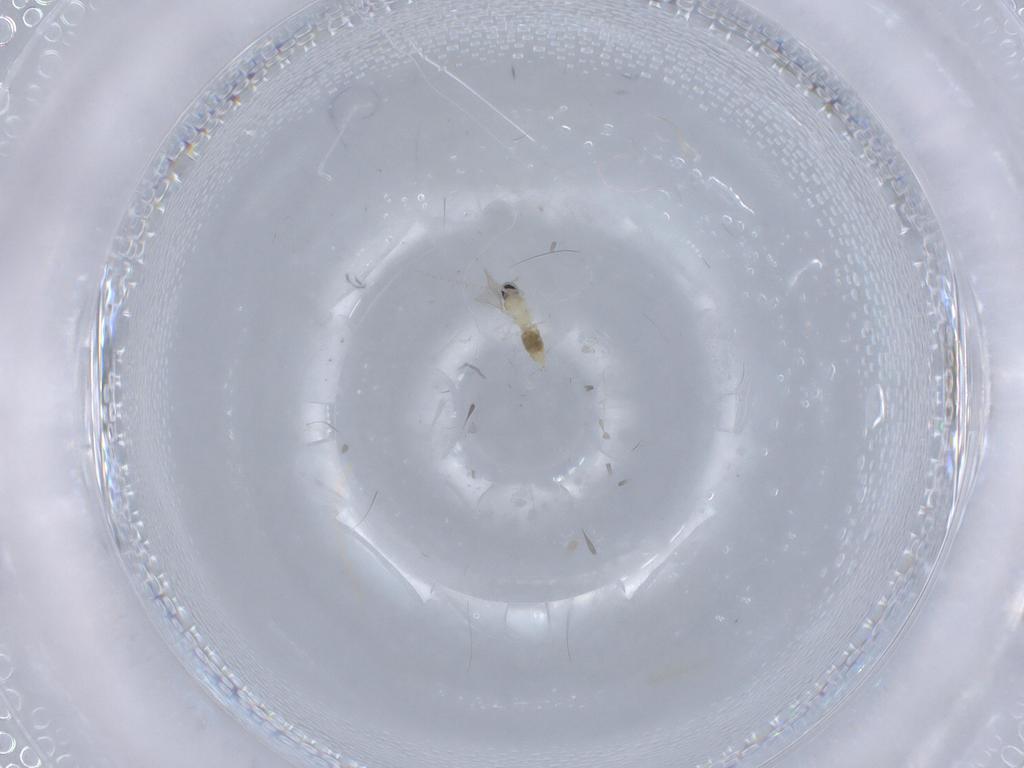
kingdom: Animalia
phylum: Arthropoda
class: Insecta
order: Diptera
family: Cecidomyiidae
